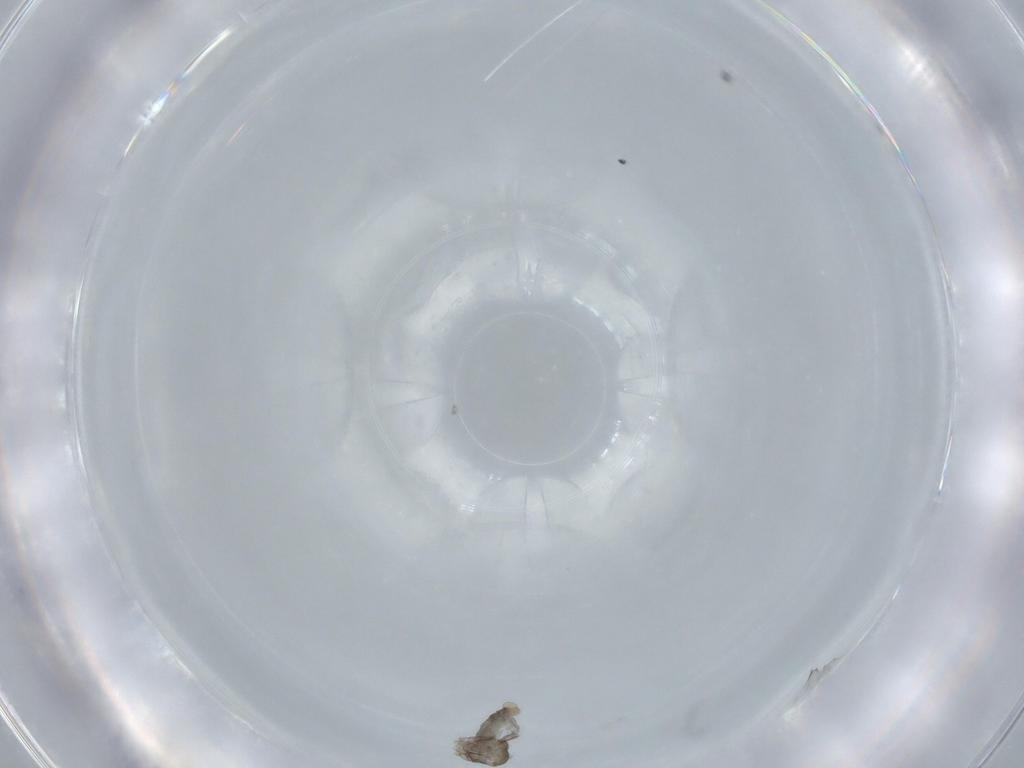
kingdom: Animalia
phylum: Arthropoda
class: Insecta
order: Diptera
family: Cecidomyiidae
